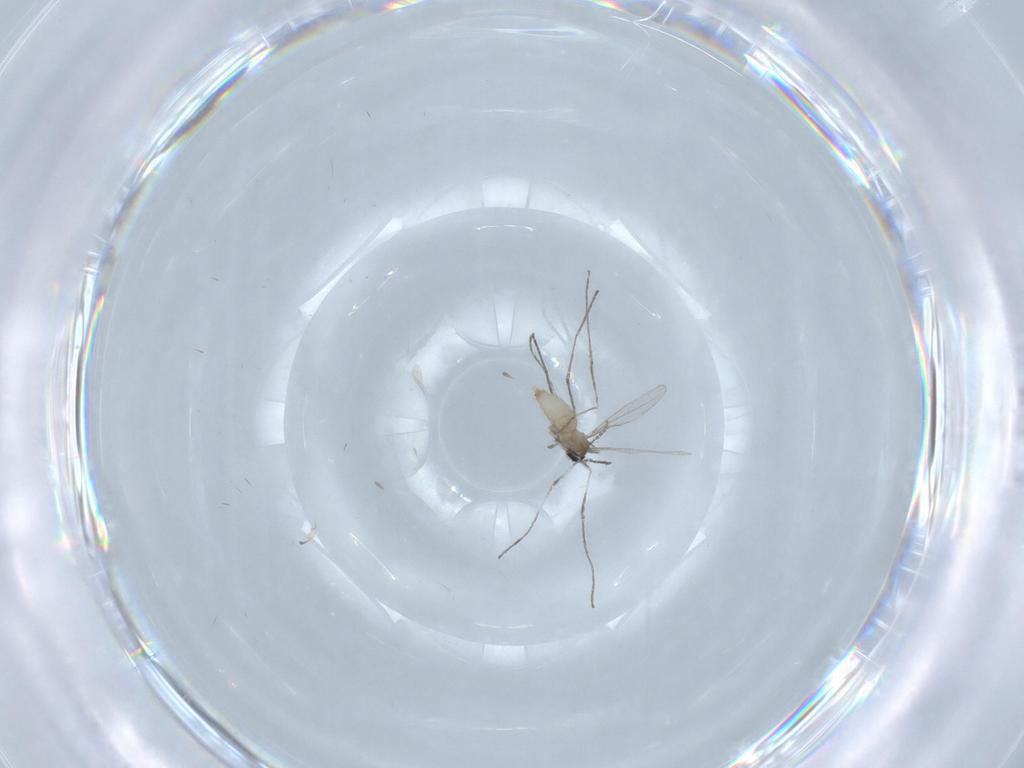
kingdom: Animalia
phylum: Arthropoda
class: Insecta
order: Diptera
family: Cecidomyiidae
